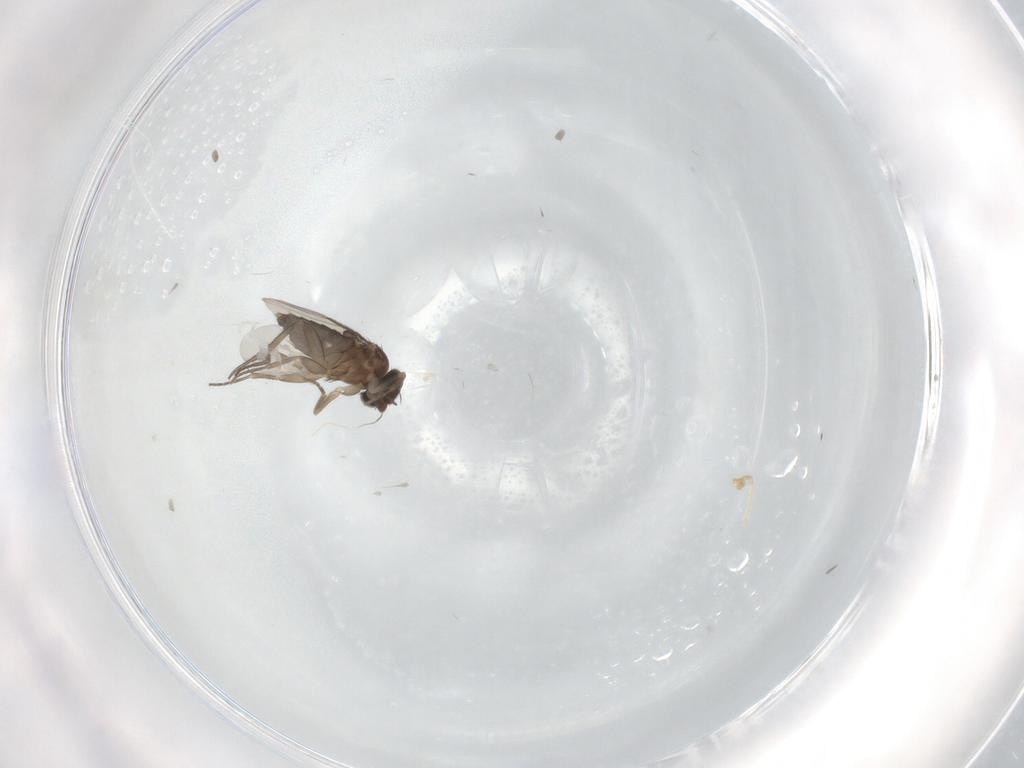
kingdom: Animalia
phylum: Arthropoda
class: Insecta
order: Diptera
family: Phoridae
